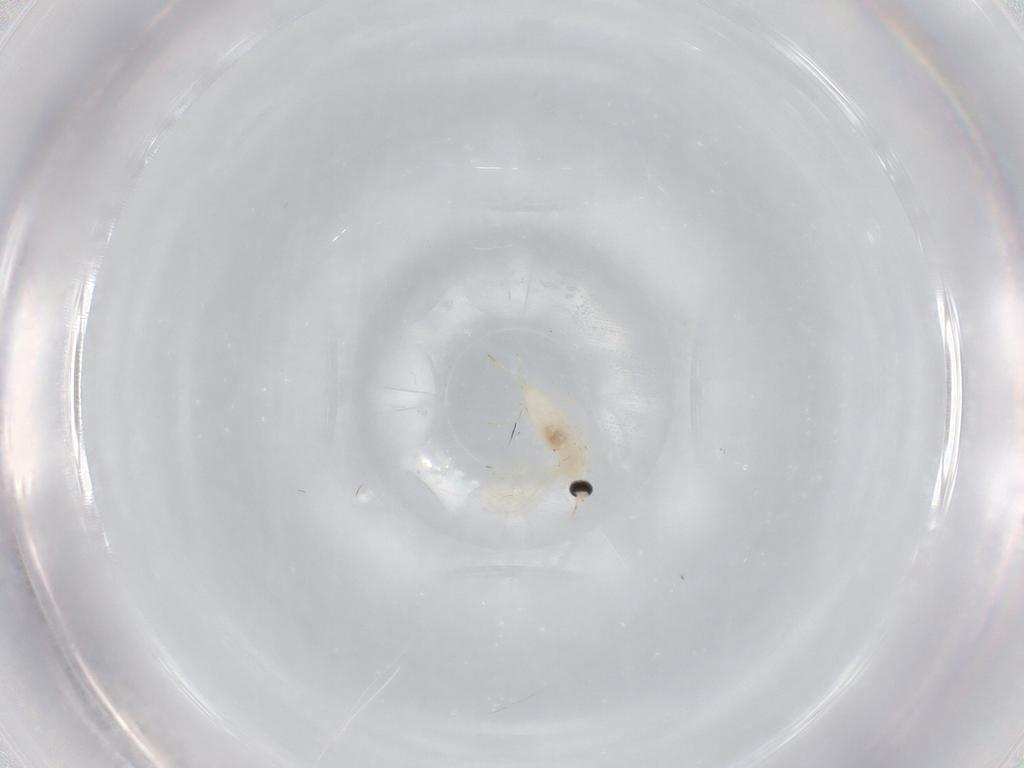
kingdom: Animalia
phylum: Arthropoda
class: Insecta
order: Diptera
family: Cecidomyiidae
